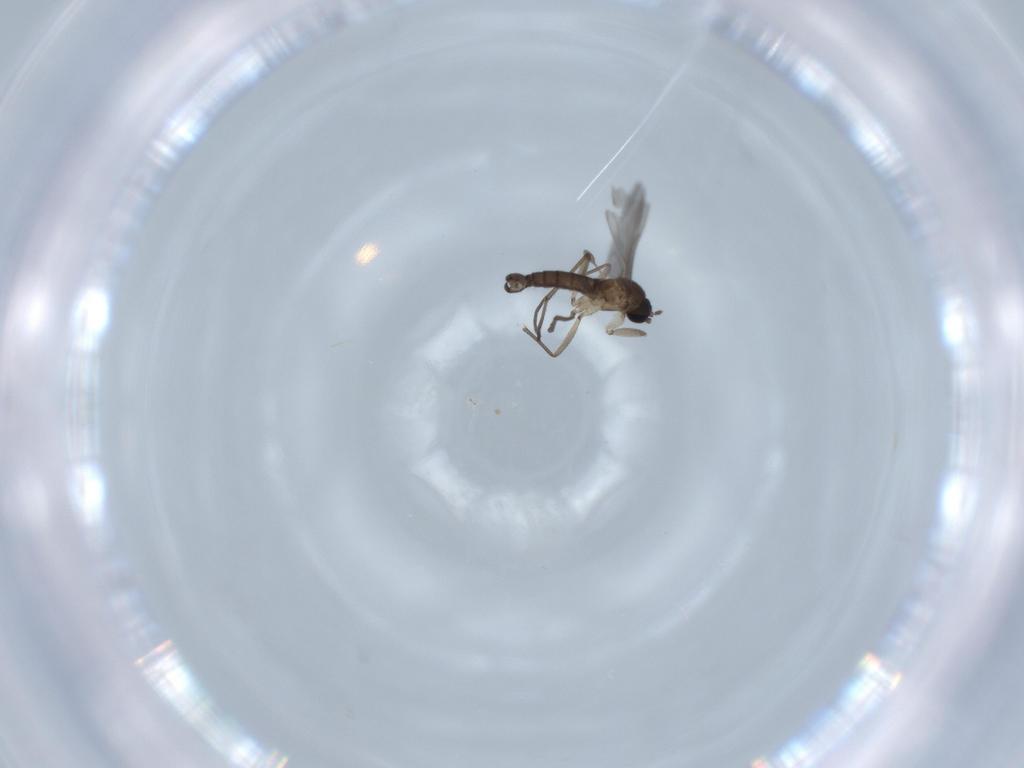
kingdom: Animalia
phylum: Arthropoda
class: Insecta
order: Diptera
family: Sciaridae
